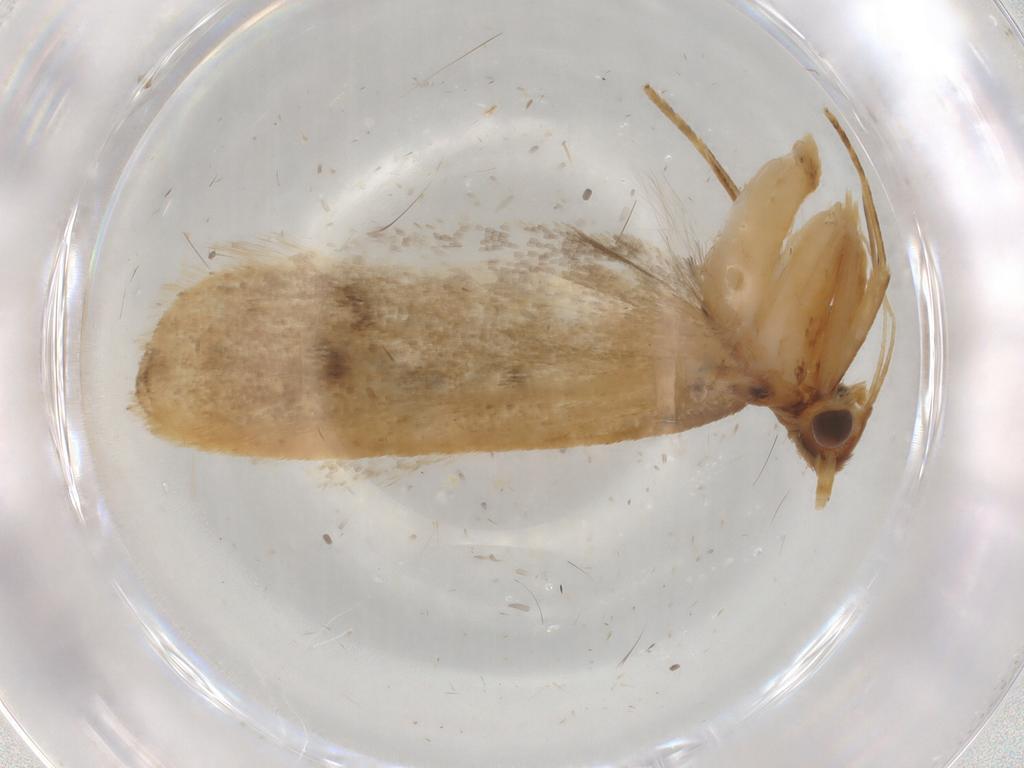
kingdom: Animalia
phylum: Arthropoda
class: Insecta
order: Lepidoptera
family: Lecithoceridae
